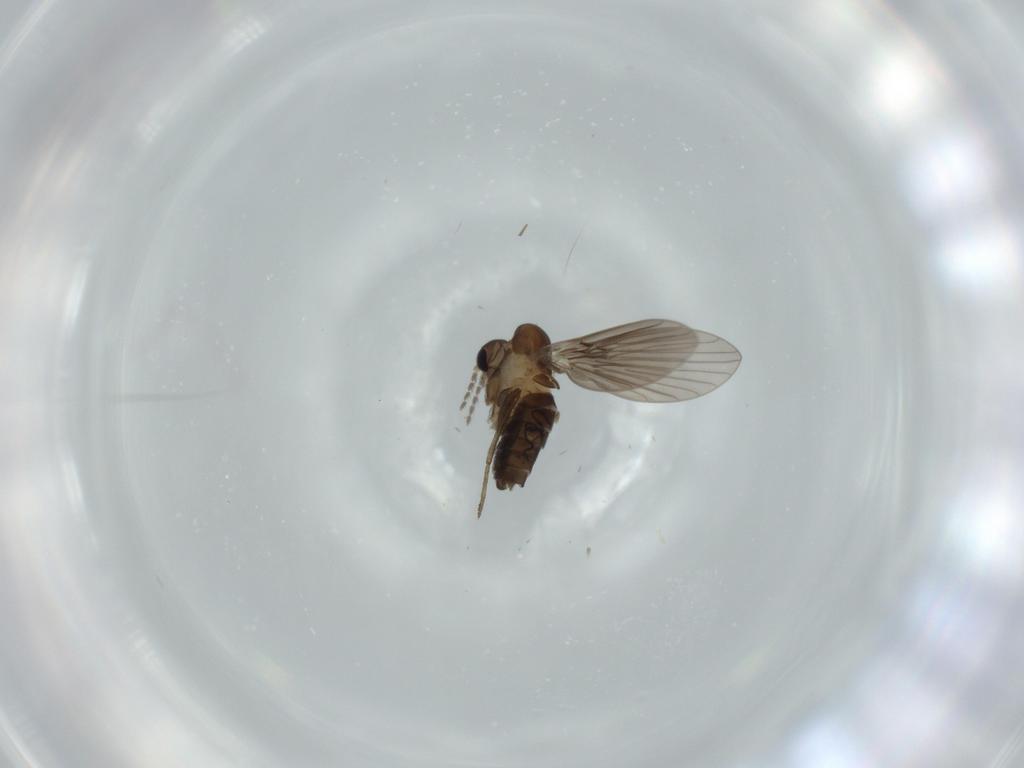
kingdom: Animalia
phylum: Arthropoda
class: Insecta
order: Diptera
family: Psychodidae
